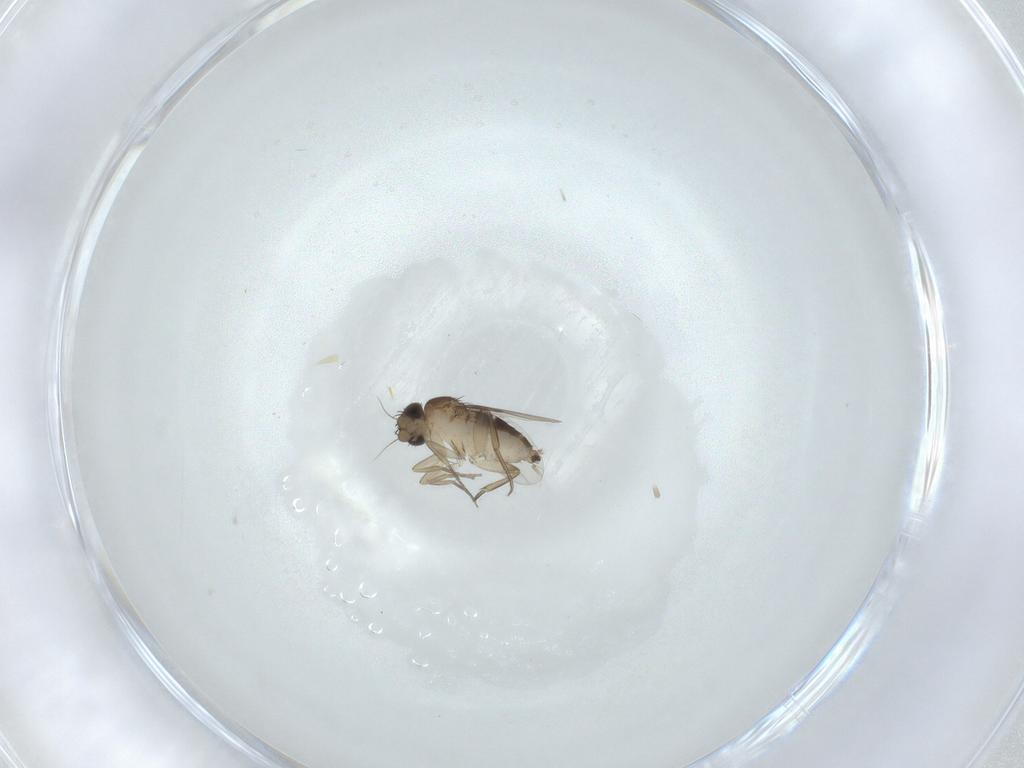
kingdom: Animalia
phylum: Arthropoda
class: Insecta
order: Diptera
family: Phoridae
